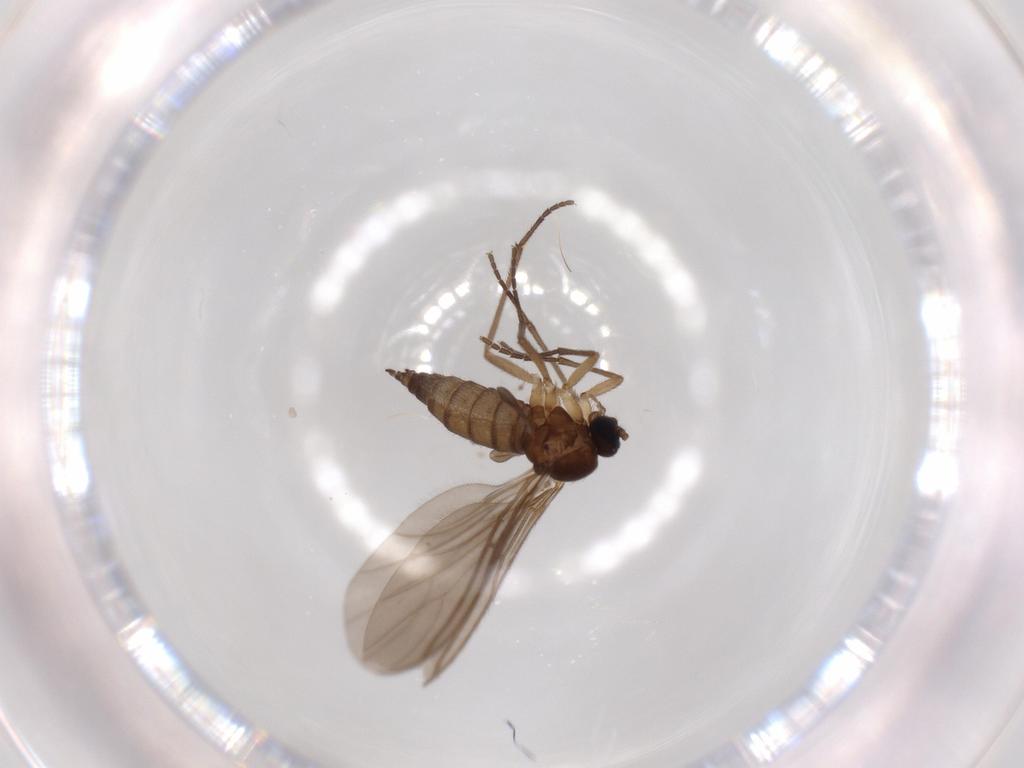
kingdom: Animalia
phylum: Arthropoda
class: Insecta
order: Diptera
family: Sciaridae
